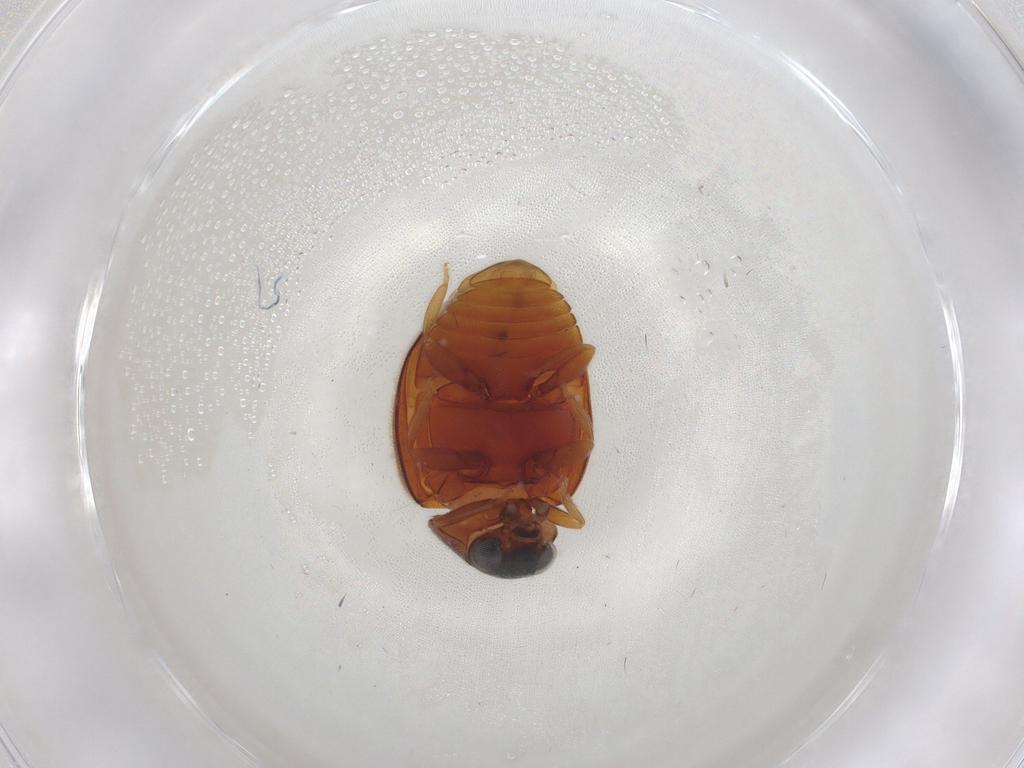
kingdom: Animalia
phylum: Arthropoda
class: Insecta
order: Coleoptera
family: Coccinellidae
